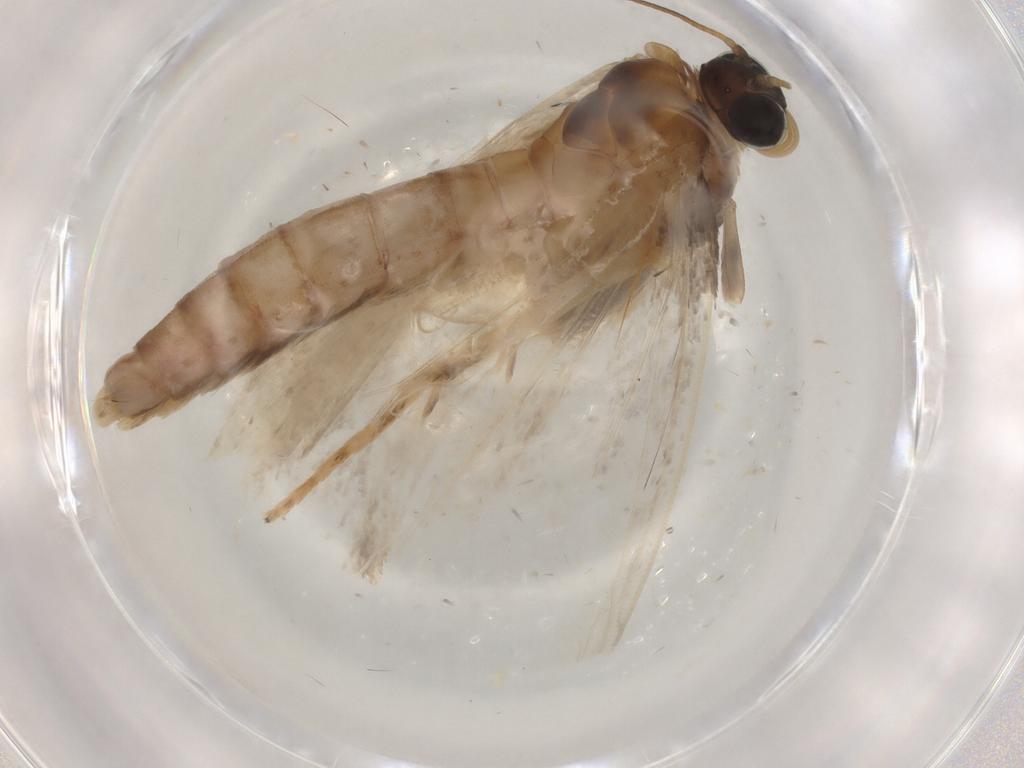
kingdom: Animalia
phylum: Arthropoda
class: Insecta
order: Lepidoptera
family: Crambidae
